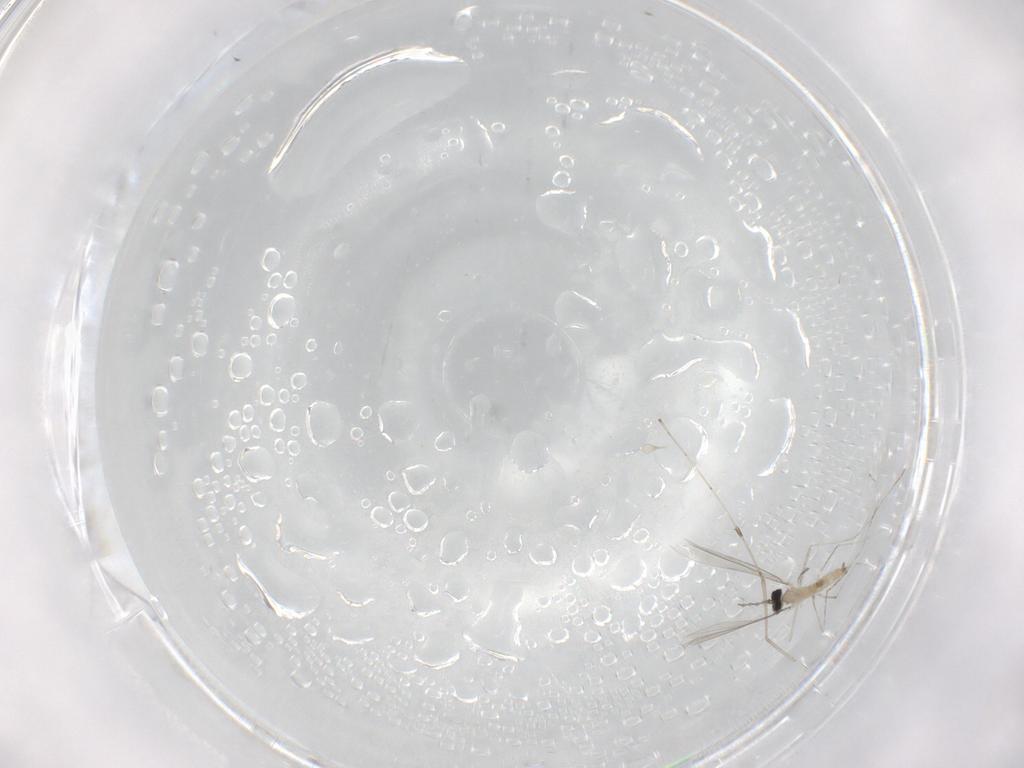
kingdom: Animalia
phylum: Arthropoda
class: Insecta
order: Diptera
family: Cecidomyiidae
